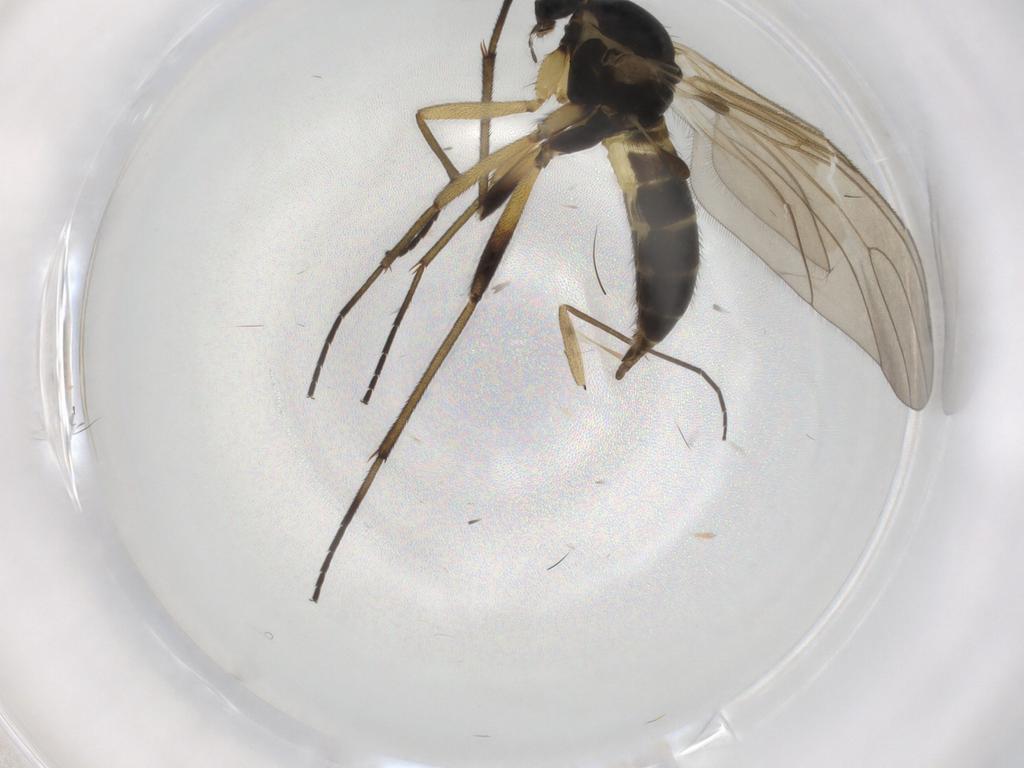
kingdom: Animalia
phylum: Arthropoda
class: Insecta
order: Diptera
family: Sciaridae
